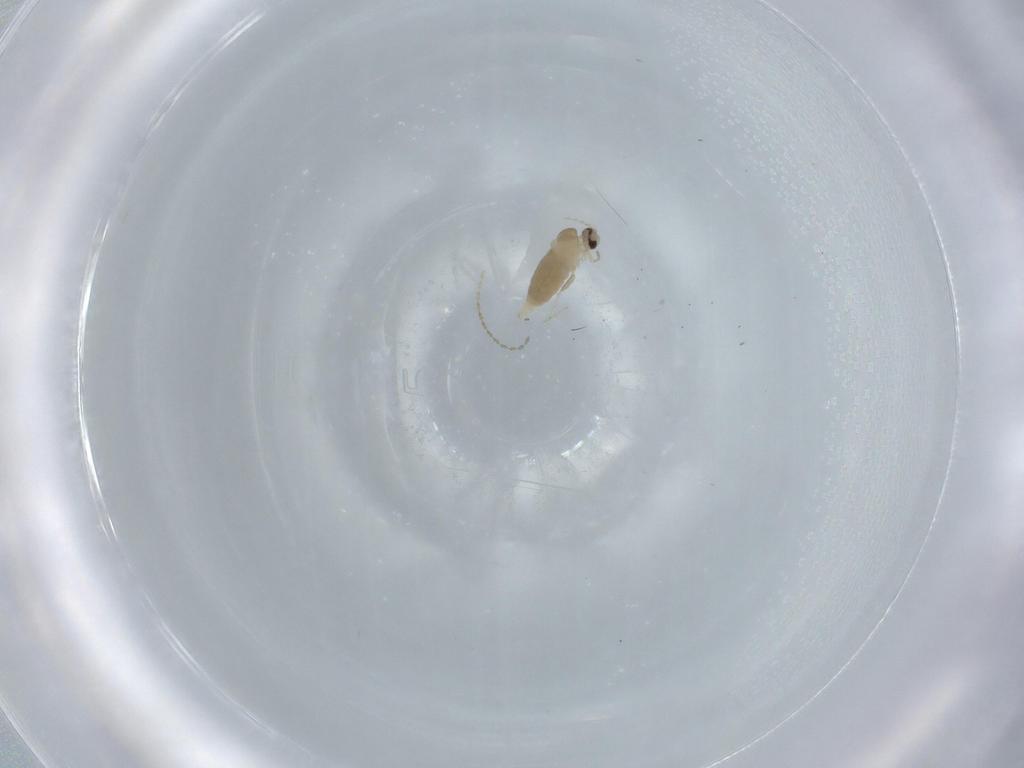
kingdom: Animalia
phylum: Arthropoda
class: Insecta
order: Diptera
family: Cecidomyiidae
